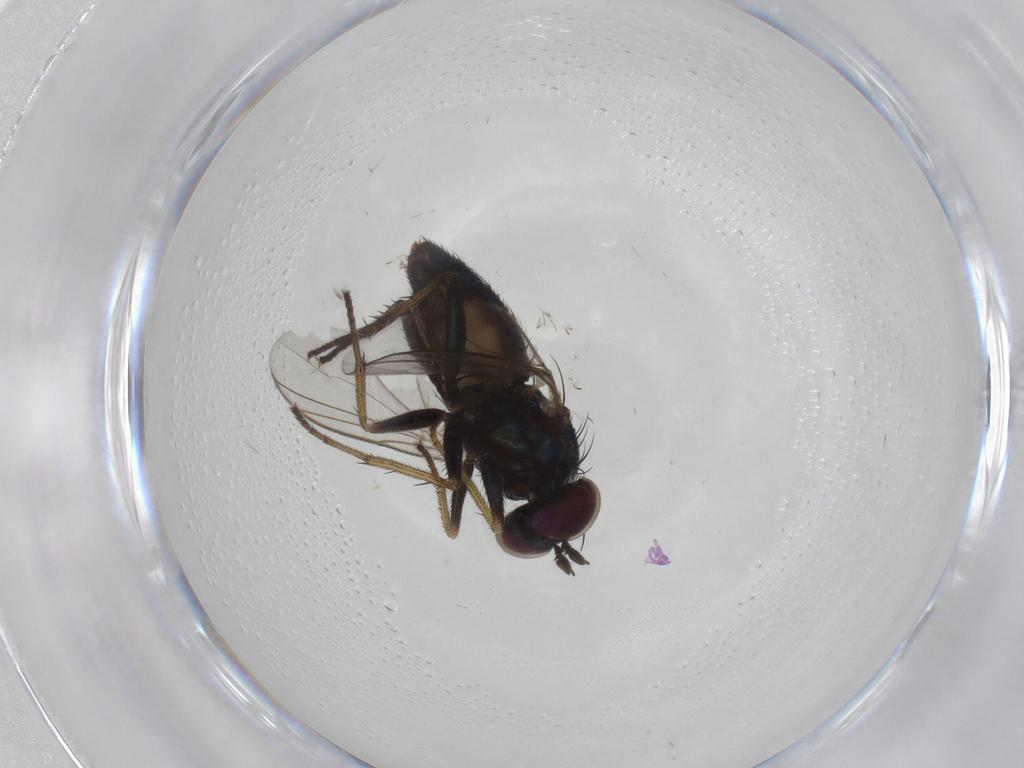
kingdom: Animalia
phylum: Arthropoda
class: Insecta
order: Diptera
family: Dolichopodidae
